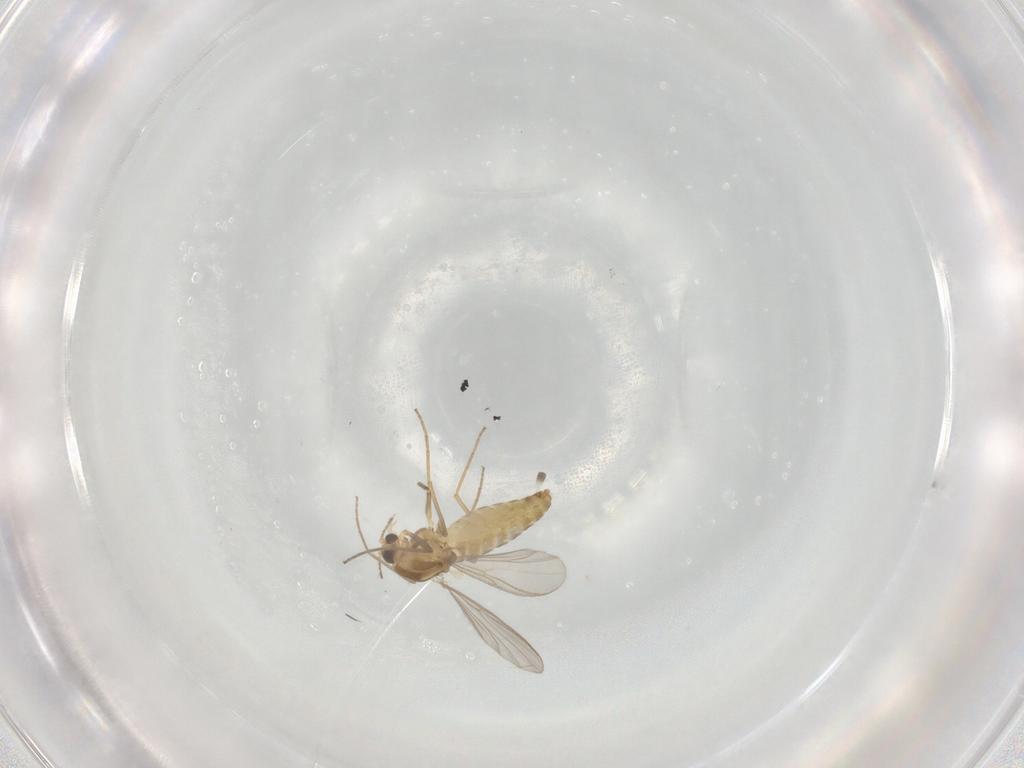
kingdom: Animalia
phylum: Arthropoda
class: Insecta
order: Diptera
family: Chironomidae
